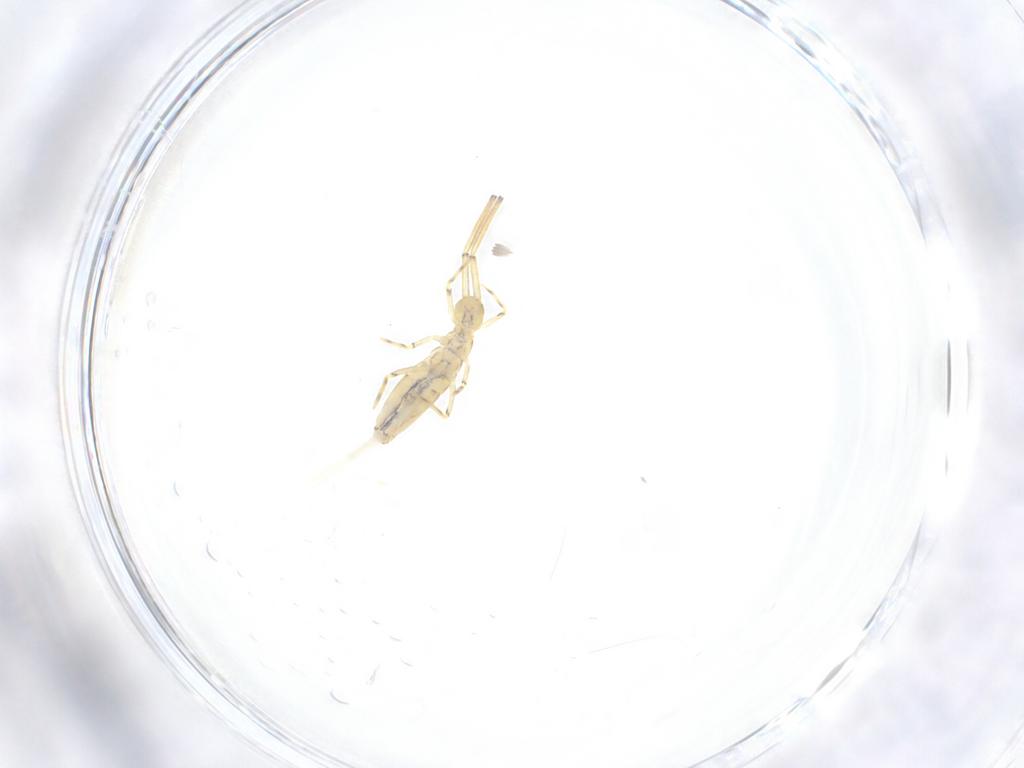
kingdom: Animalia
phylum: Arthropoda
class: Collembola
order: Entomobryomorpha
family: Paronellidae
